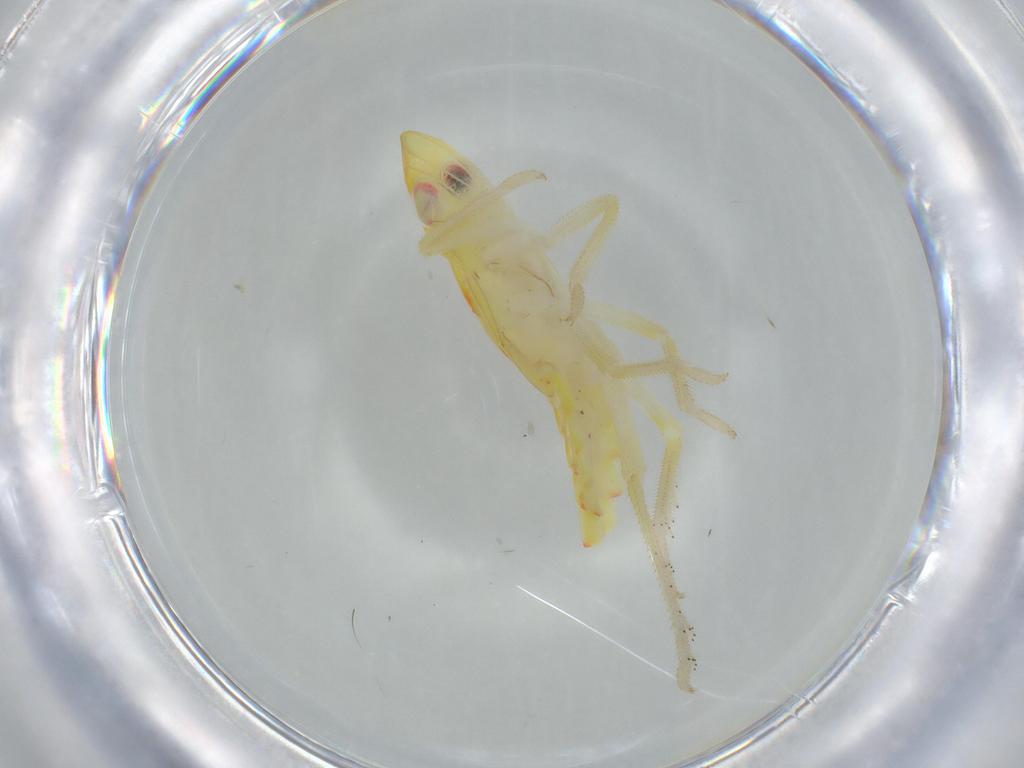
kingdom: Animalia
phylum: Arthropoda
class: Insecta
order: Hemiptera
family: Tropiduchidae
